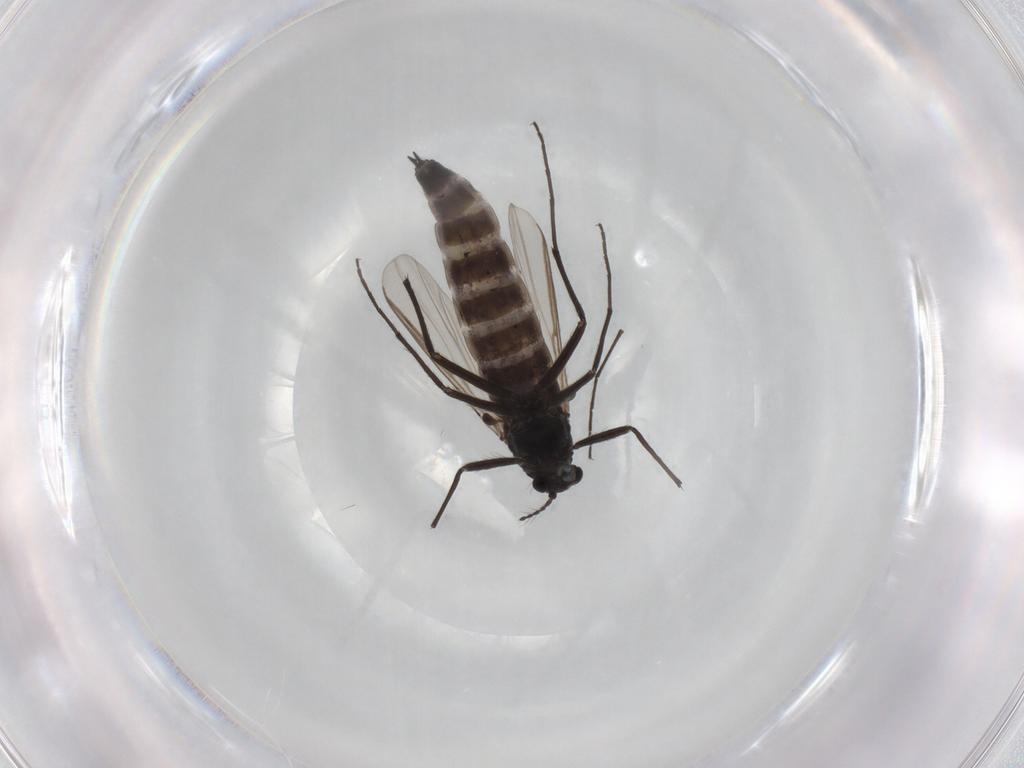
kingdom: Animalia
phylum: Arthropoda
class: Insecta
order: Diptera
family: Chironomidae
